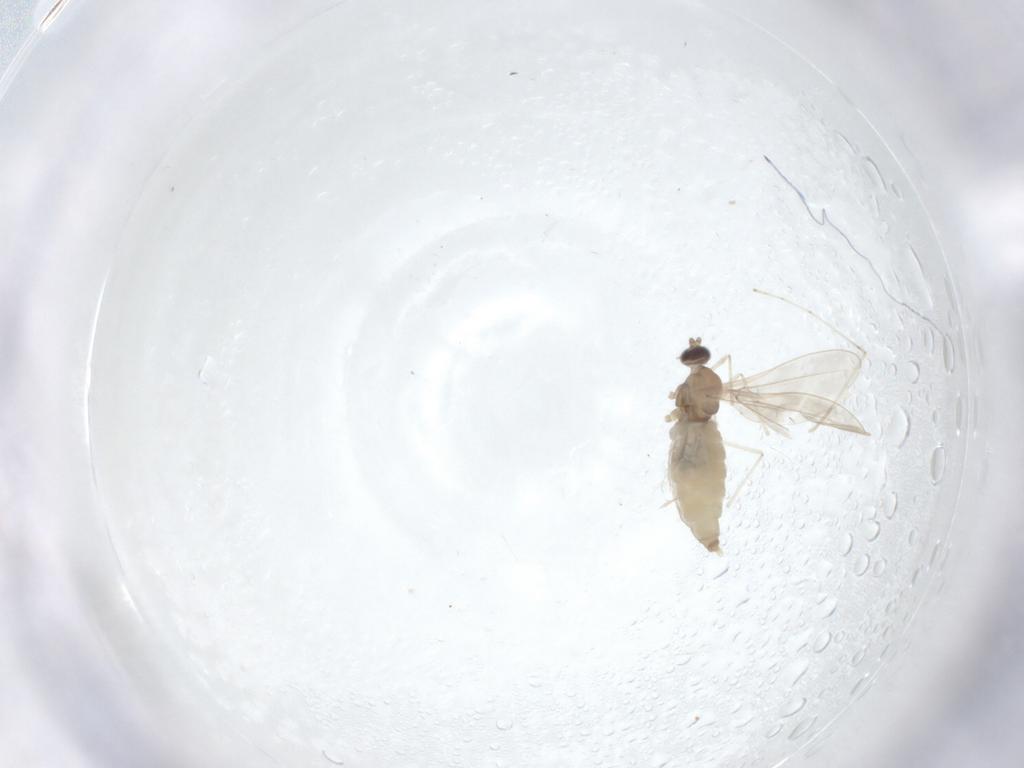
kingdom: Animalia
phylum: Arthropoda
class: Insecta
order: Diptera
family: Cecidomyiidae
